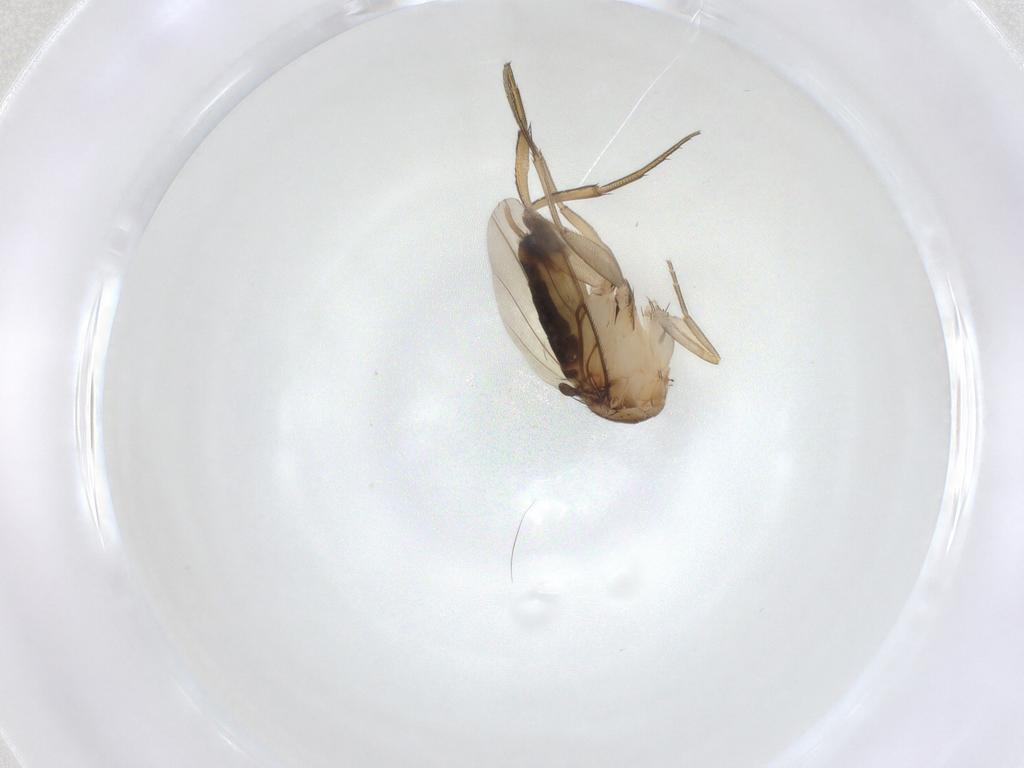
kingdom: Animalia
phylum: Arthropoda
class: Insecta
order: Diptera
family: Phoridae
